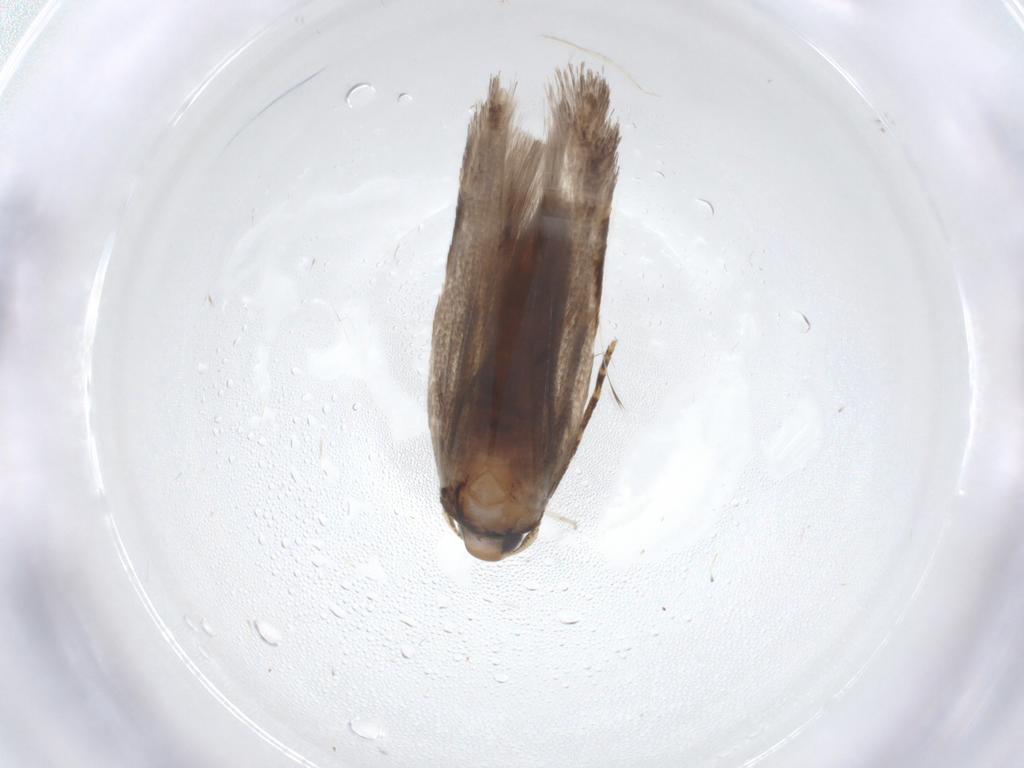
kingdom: Animalia
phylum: Arthropoda
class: Insecta
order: Lepidoptera
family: Cosmopterigidae
